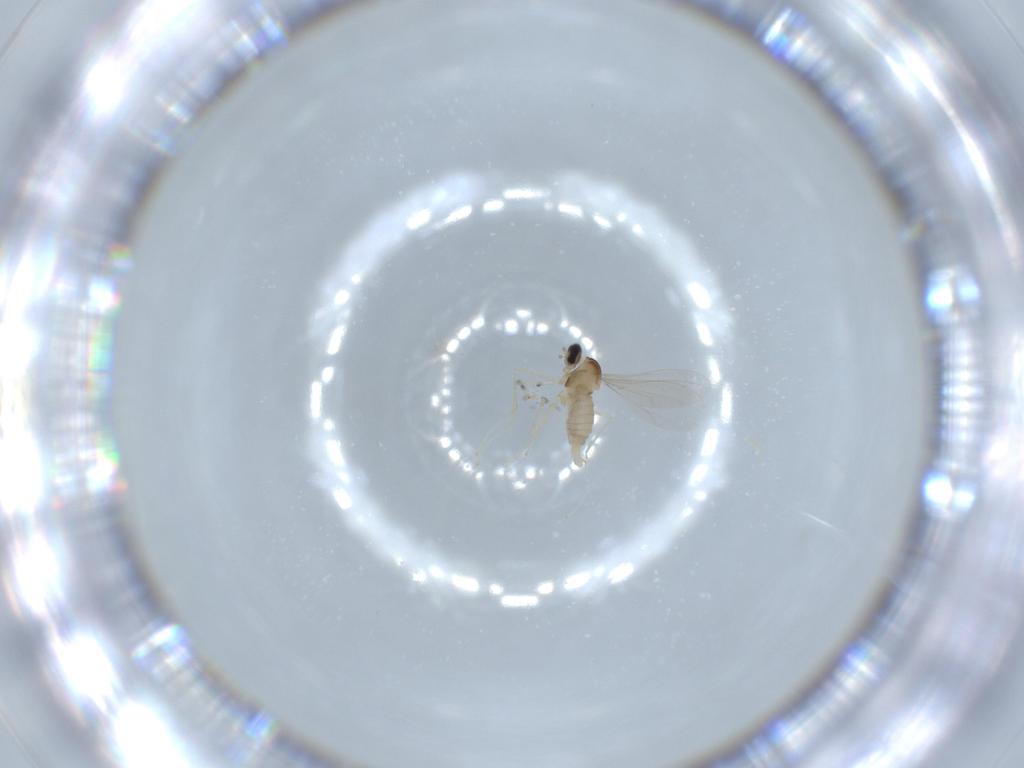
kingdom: Animalia
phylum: Arthropoda
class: Insecta
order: Diptera
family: Cecidomyiidae
